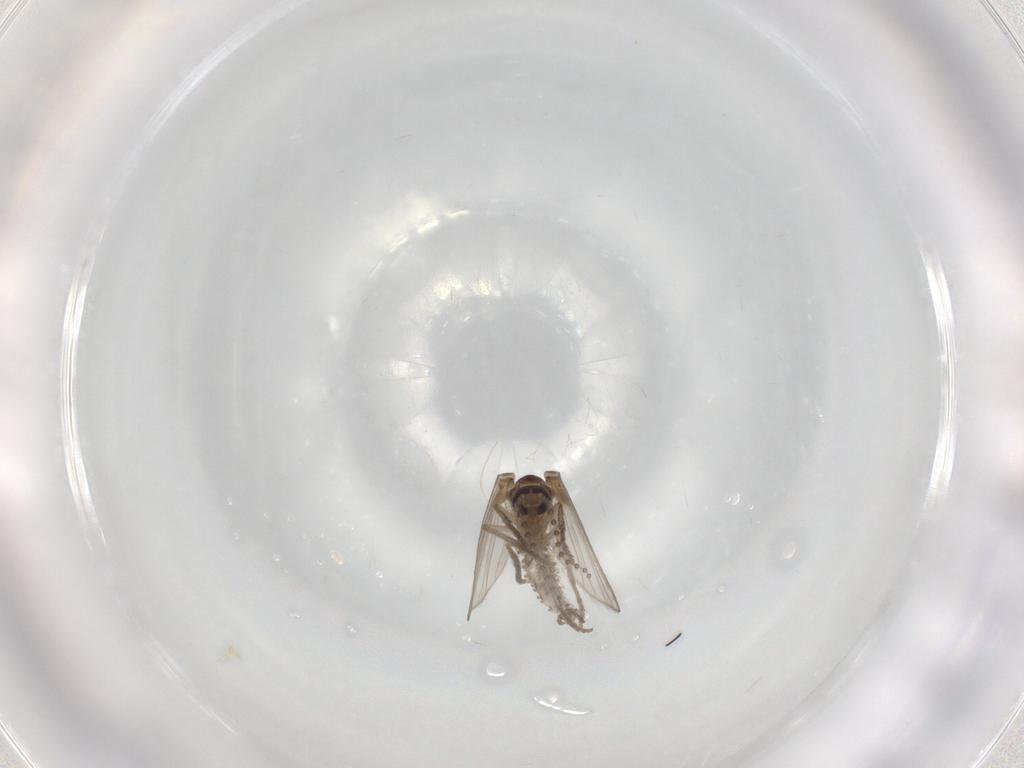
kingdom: Animalia
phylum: Arthropoda
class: Insecta
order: Diptera
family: Psychodidae
